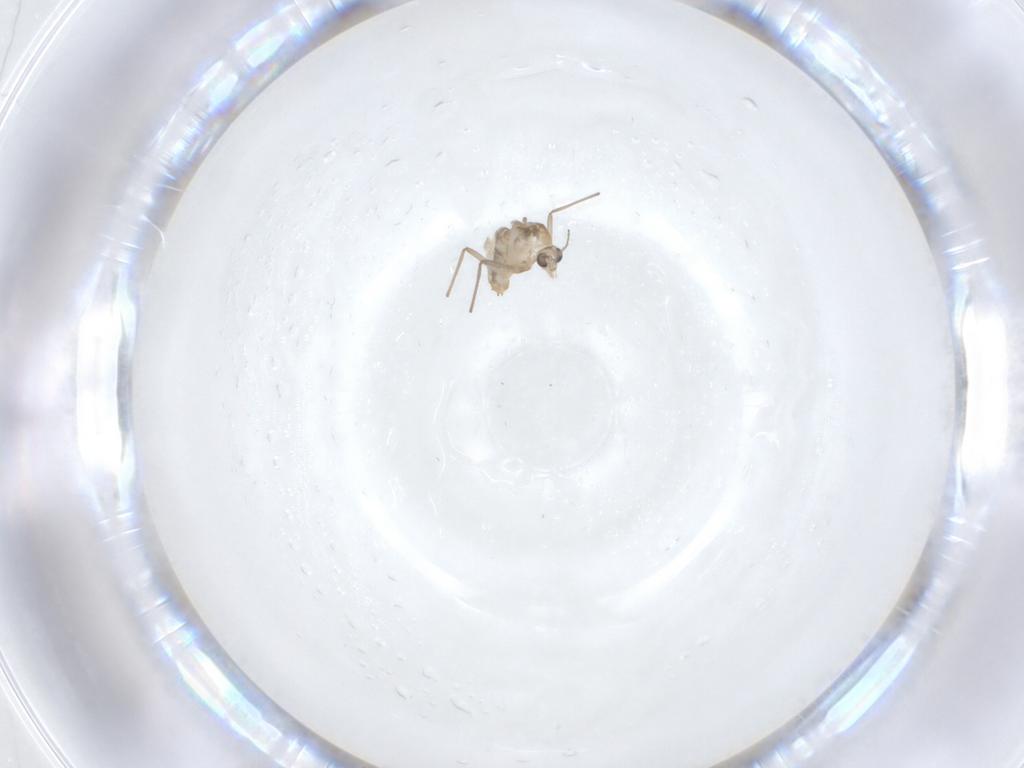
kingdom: Animalia
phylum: Arthropoda
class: Insecta
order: Diptera
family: Chironomidae
